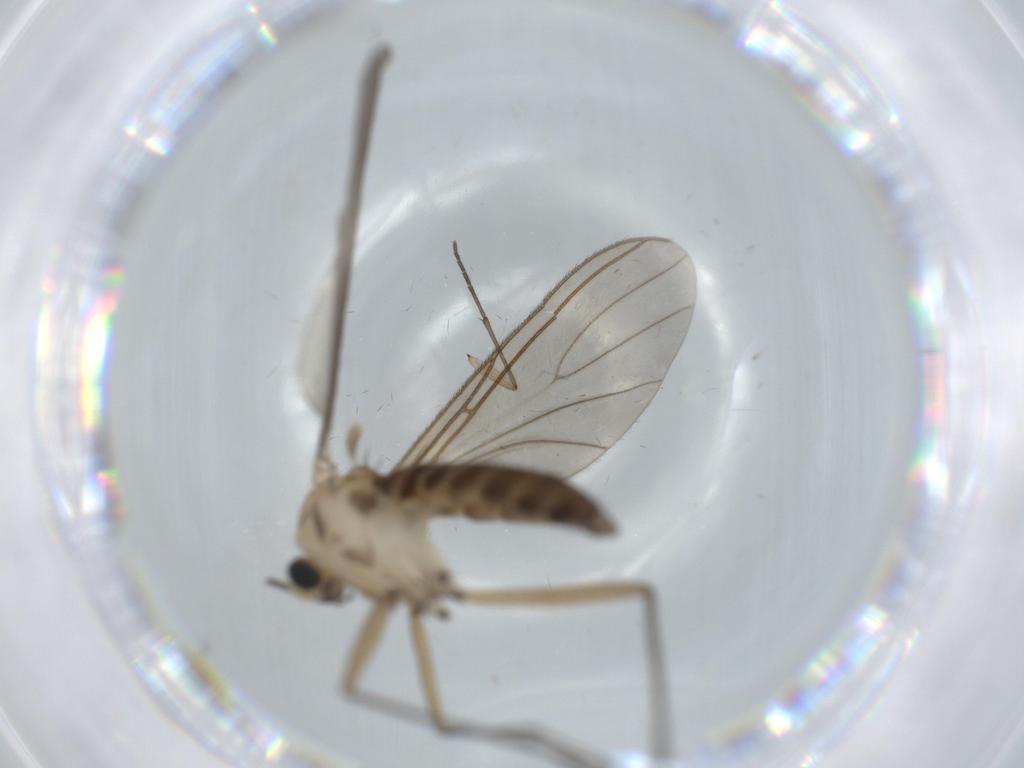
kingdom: Animalia
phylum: Arthropoda
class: Insecta
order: Diptera
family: Sciaridae
